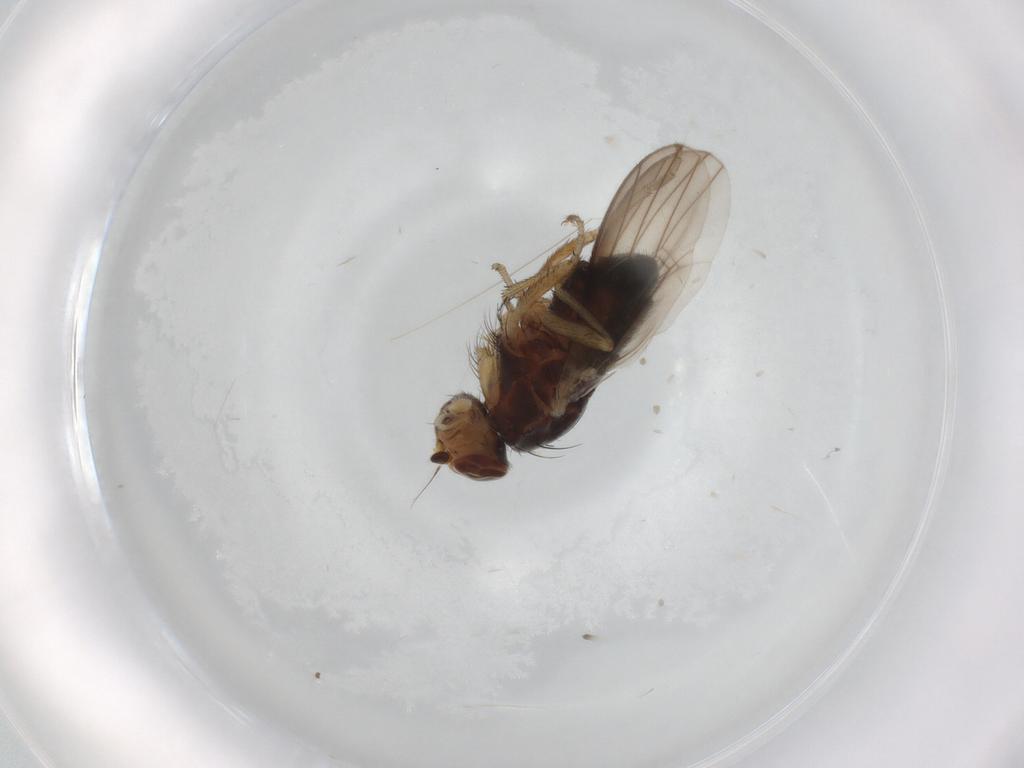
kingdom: Animalia
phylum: Arthropoda
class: Insecta
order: Diptera
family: Heleomyzidae
